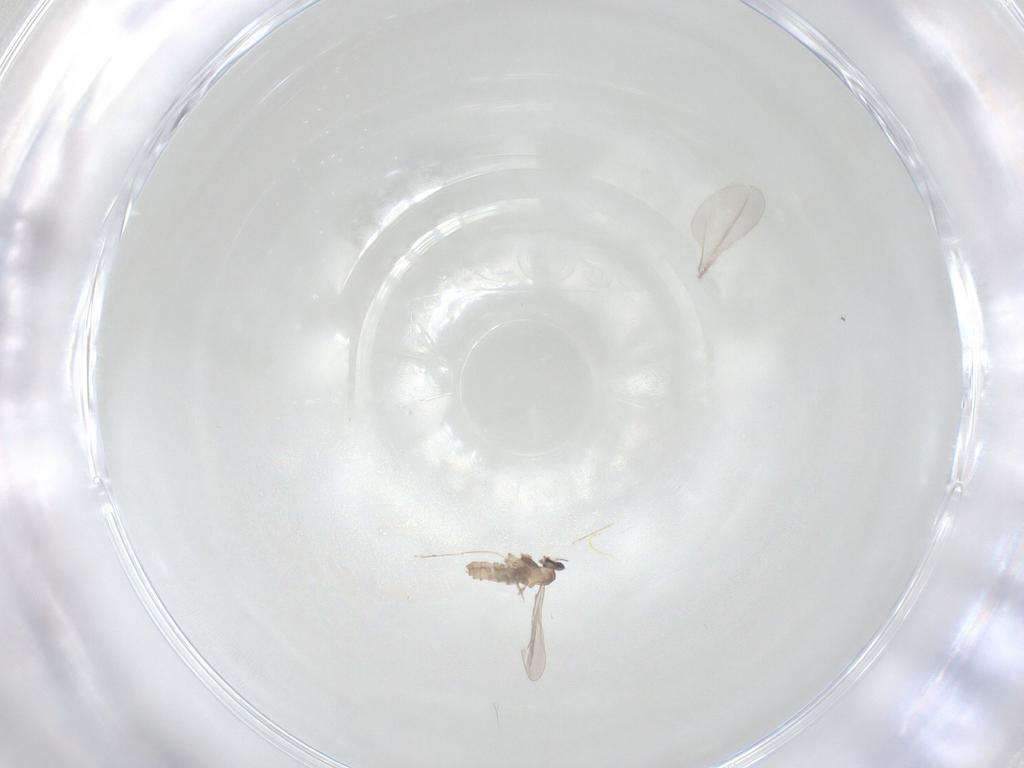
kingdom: Animalia
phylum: Arthropoda
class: Insecta
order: Diptera
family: Cecidomyiidae
